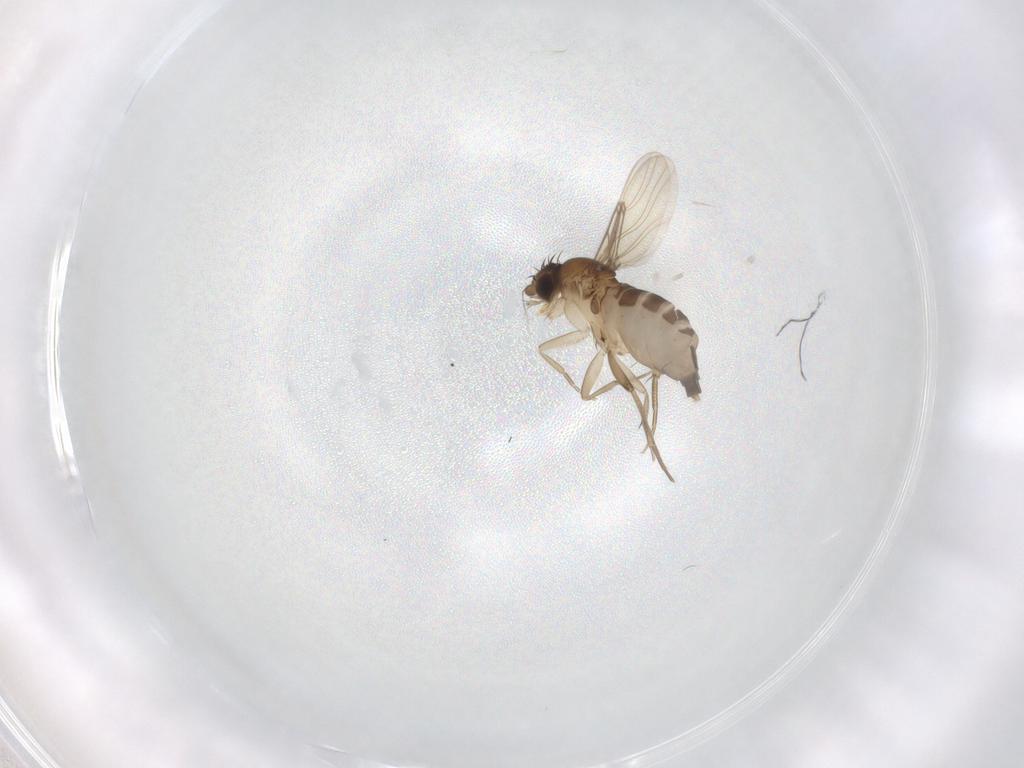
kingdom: Animalia
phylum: Arthropoda
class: Insecta
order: Diptera
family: Phoridae
